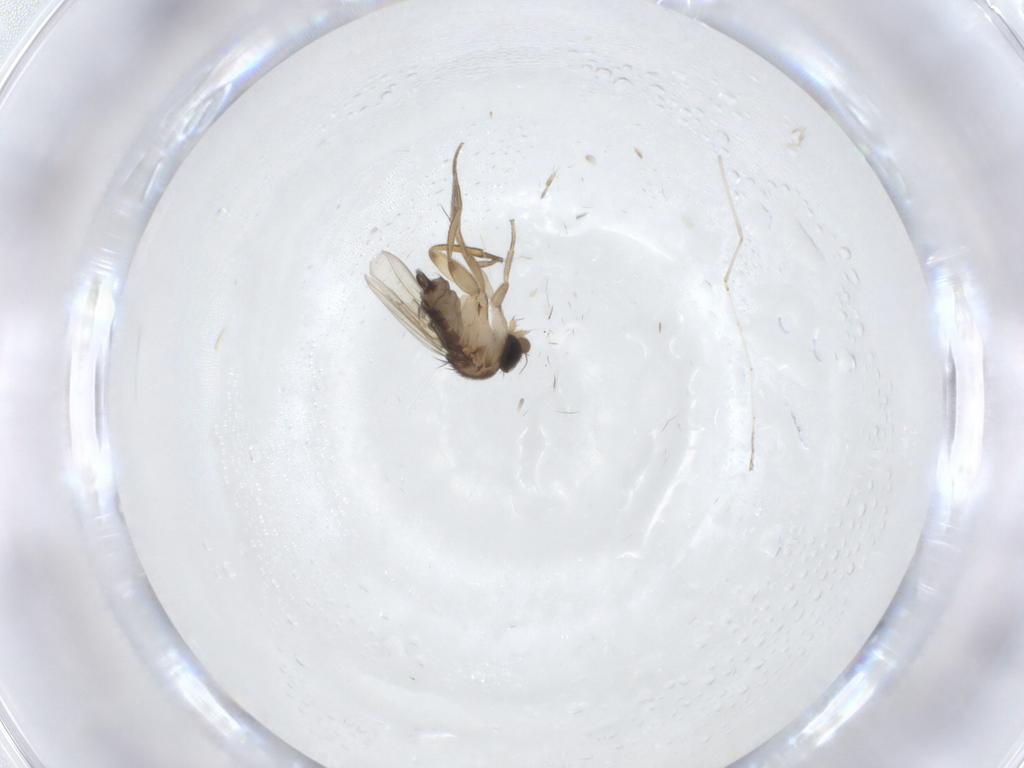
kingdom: Animalia
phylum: Arthropoda
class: Insecta
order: Diptera
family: Cecidomyiidae
